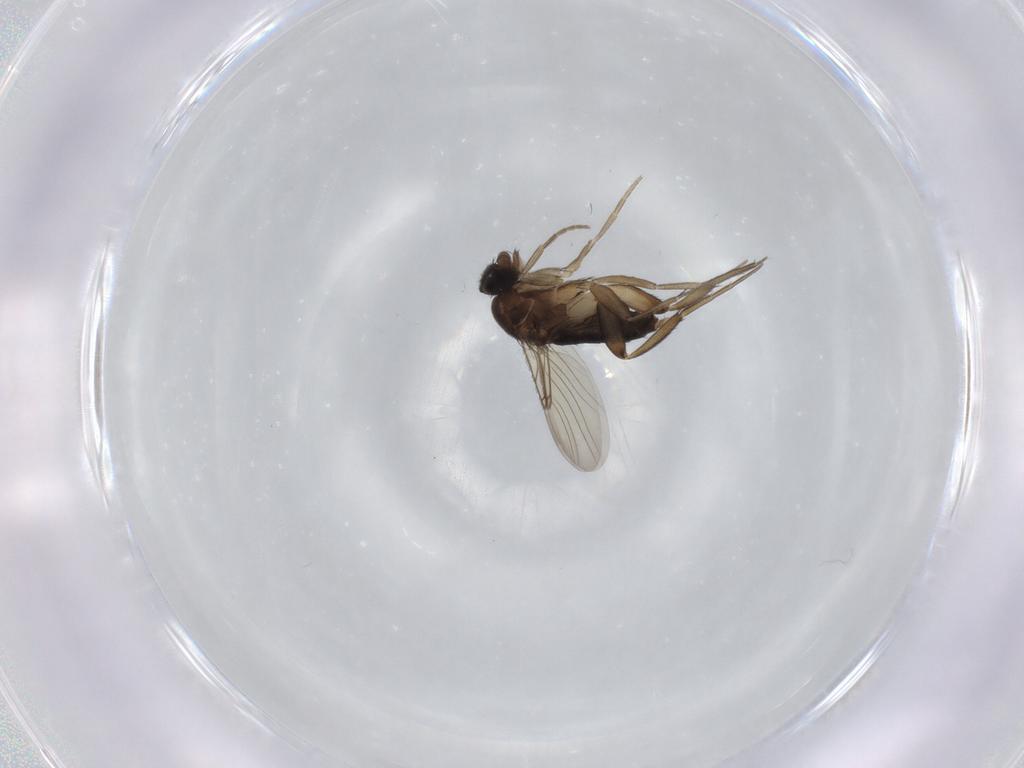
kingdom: Animalia
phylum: Arthropoda
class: Insecta
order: Diptera
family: Phoridae
